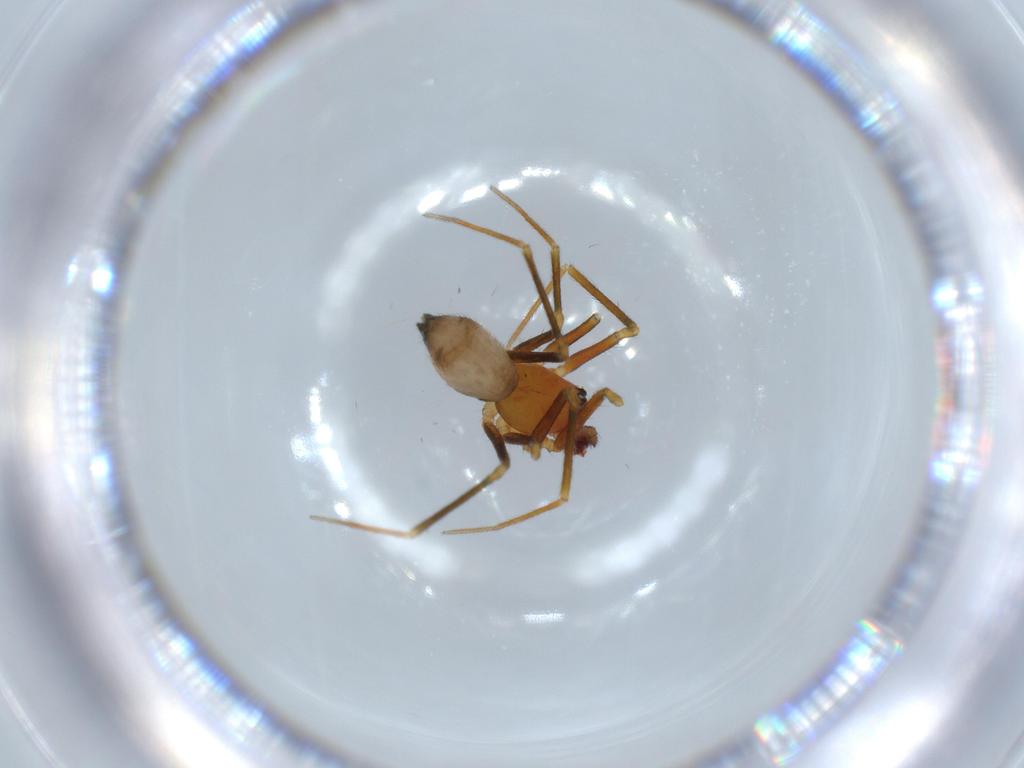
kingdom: Animalia
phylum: Arthropoda
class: Arachnida
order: Araneae
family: Linyphiidae
